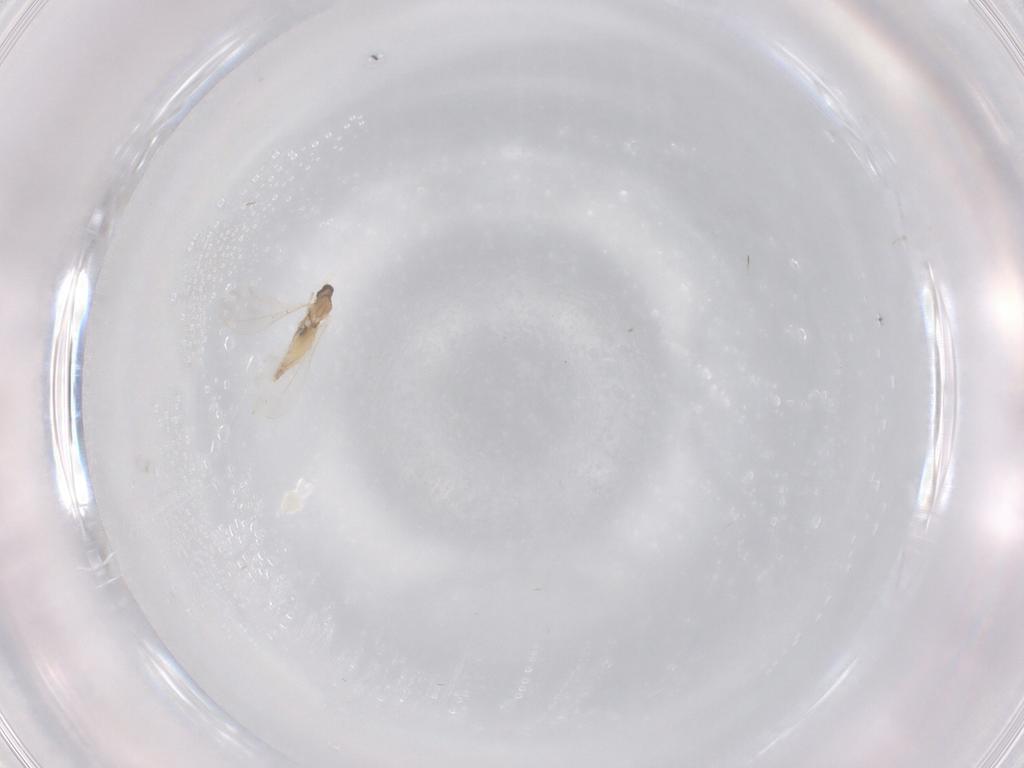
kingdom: Animalia
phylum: Arthropoda
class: Insecta
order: Diptera
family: Cecidomyiidae
